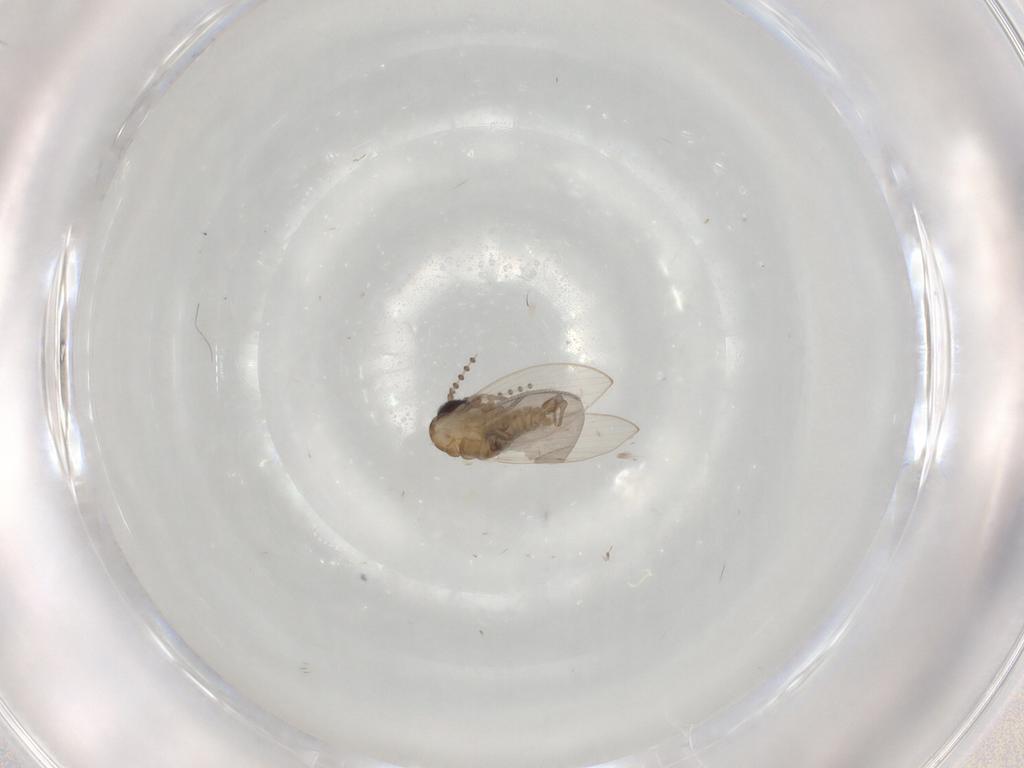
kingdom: Animalia
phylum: Arthropoda
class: Insecta
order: Diptera
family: Psychodidae
